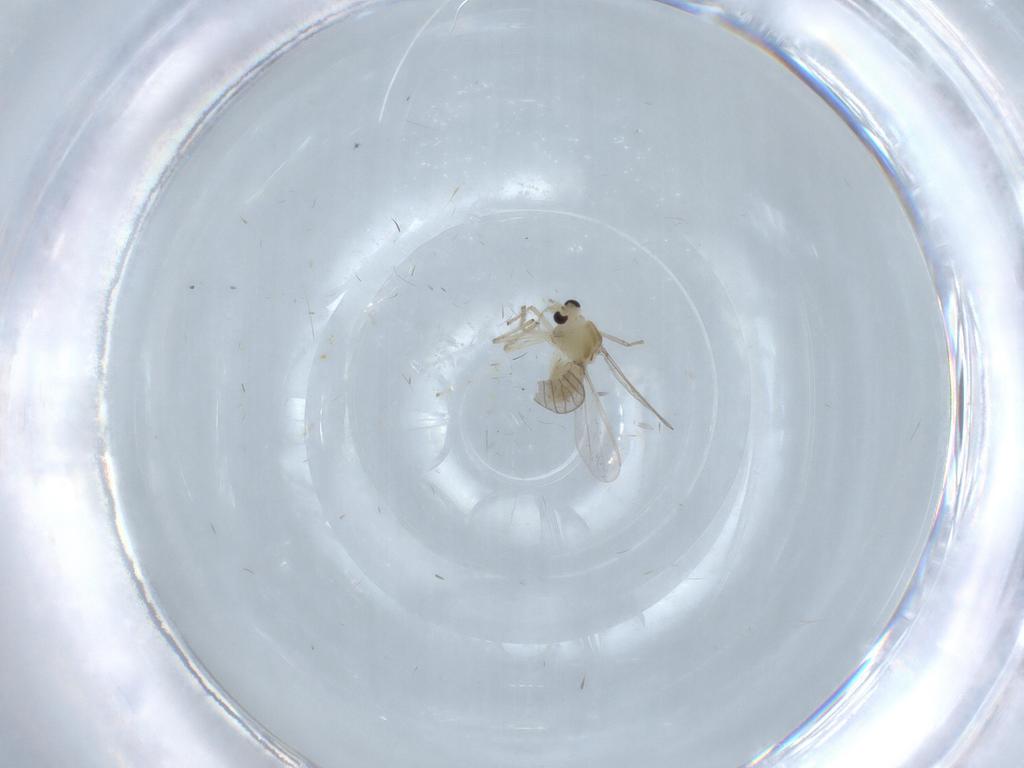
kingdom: Animalia
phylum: Arthropoda
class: Insecta
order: Diptera
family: Chironomidae
